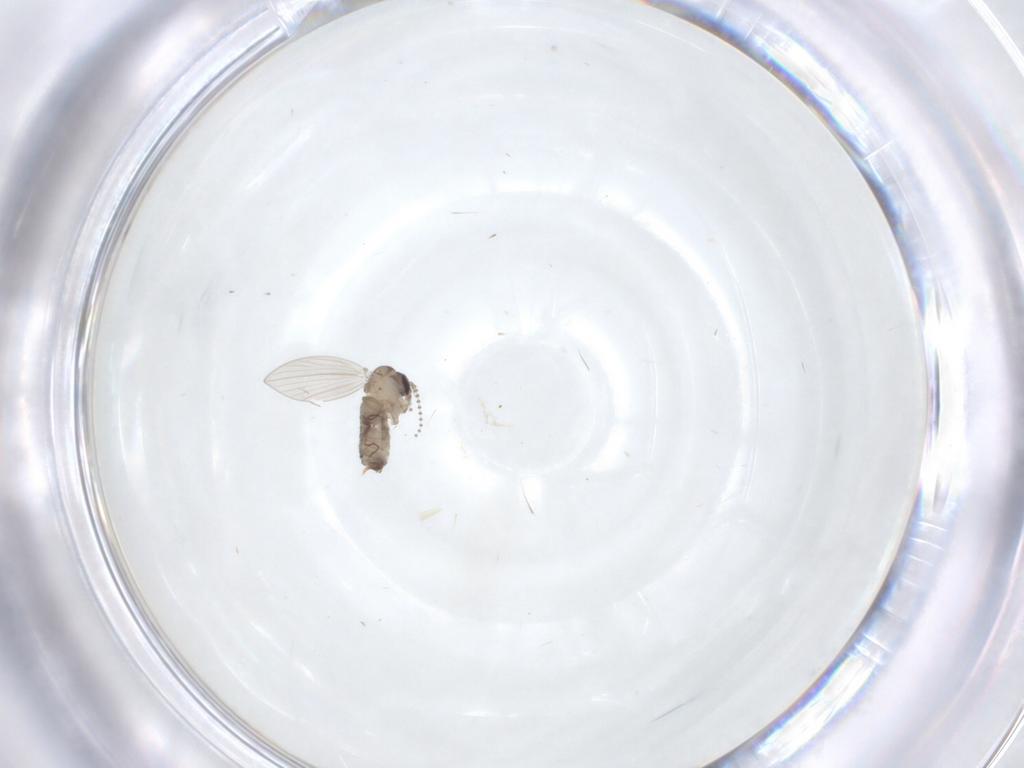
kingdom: Animalia
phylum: Arthropoda
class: Insecta
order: Diptera
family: Psychodidae
